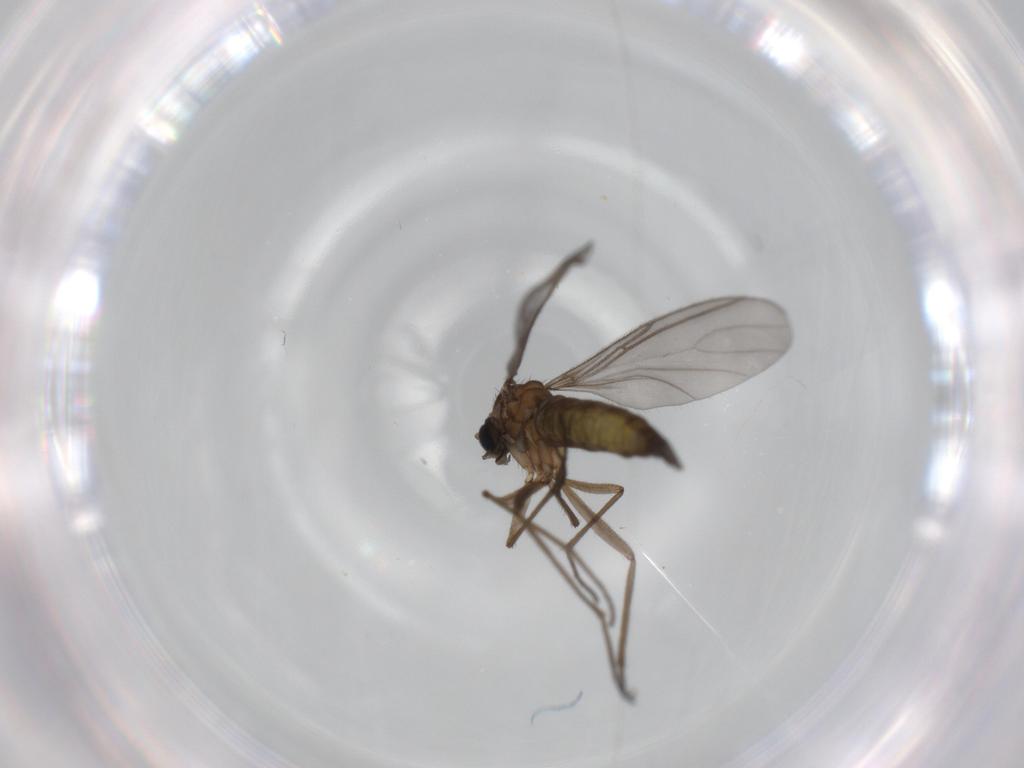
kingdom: Animalia
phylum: Arthropoda
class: Insecta
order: Diptera
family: Sciaridae
